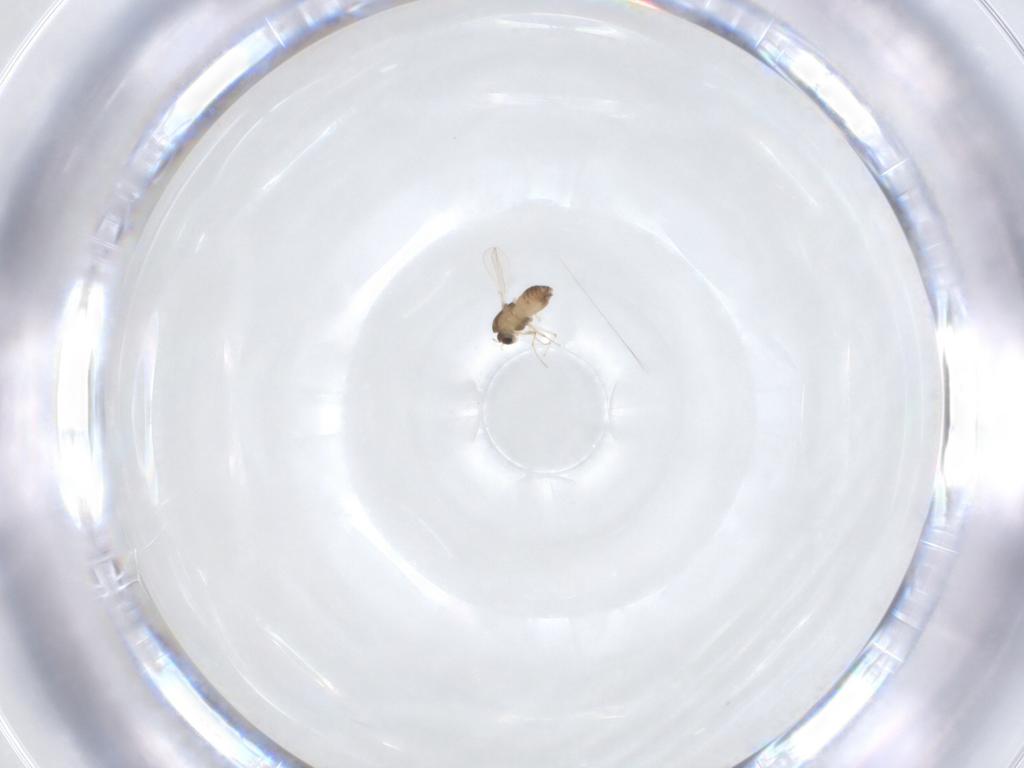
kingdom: Animalia
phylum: Arthropoda
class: Insecta
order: Diptera
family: Chironomidae
